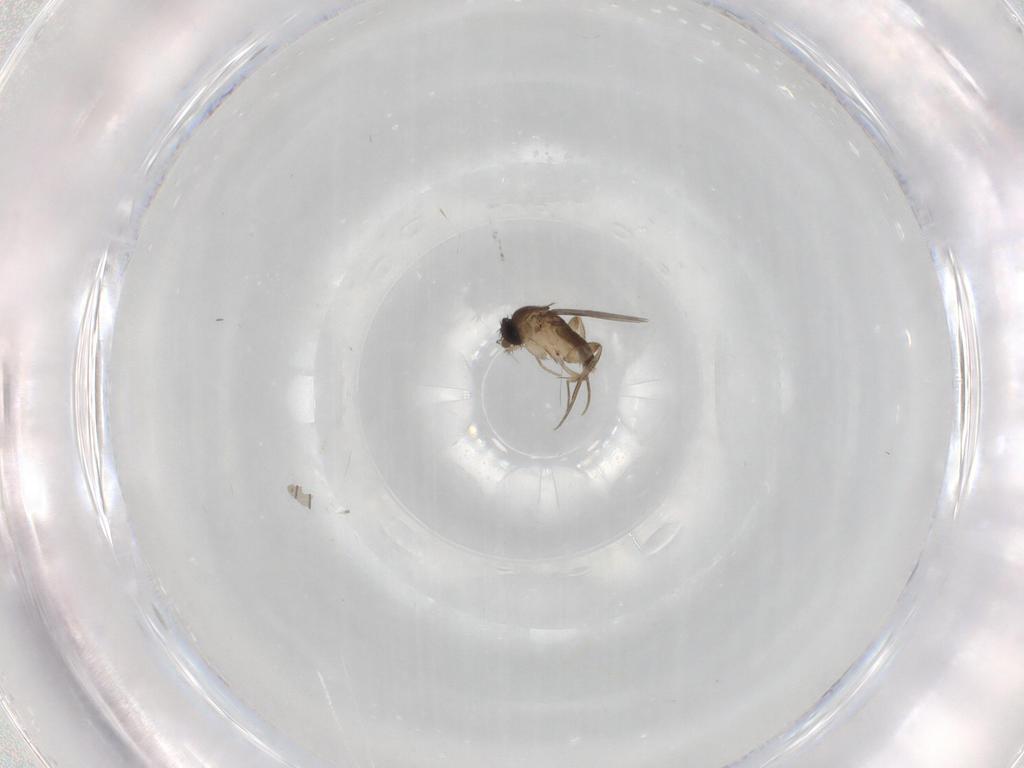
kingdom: Animalia
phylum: Arthropoda
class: Insecta
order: Diptera
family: Phoridae
